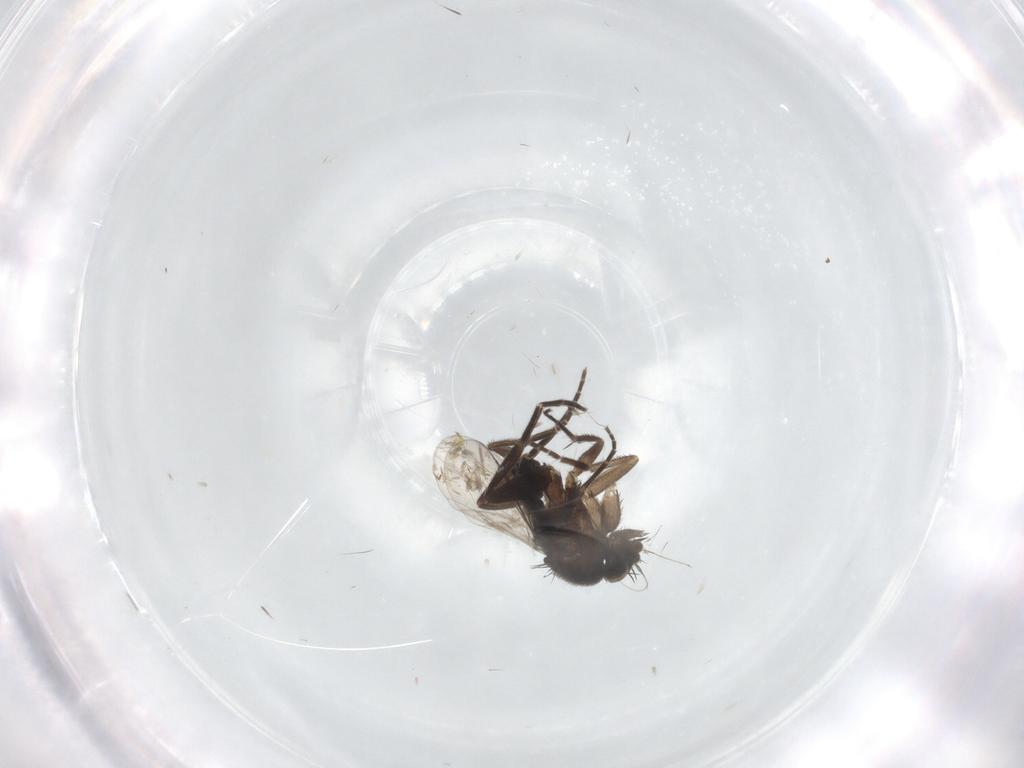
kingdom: Animalia
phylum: Arthropoda
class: Insecta
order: Diptera
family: Phoridae
